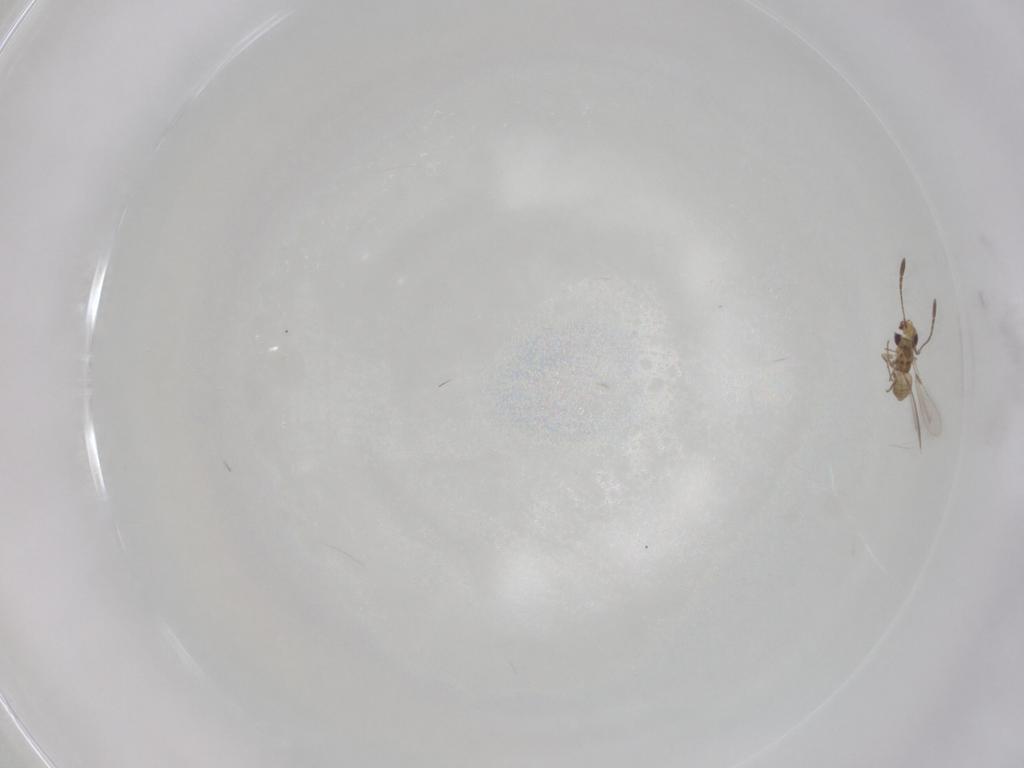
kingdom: Animalia
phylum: Arthropoda
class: Insecta
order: Hymenoptera
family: Mymaridae
